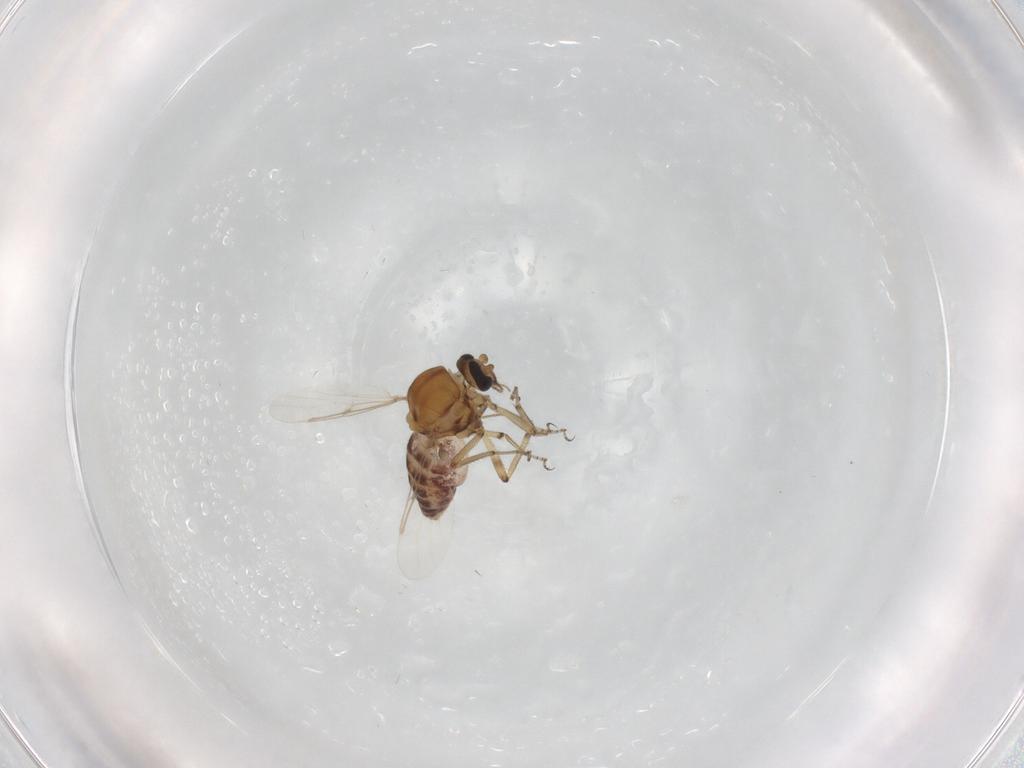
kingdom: Animalia
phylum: Arthropoda
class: Insecta
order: Diptera
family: Ceratopogonidae
